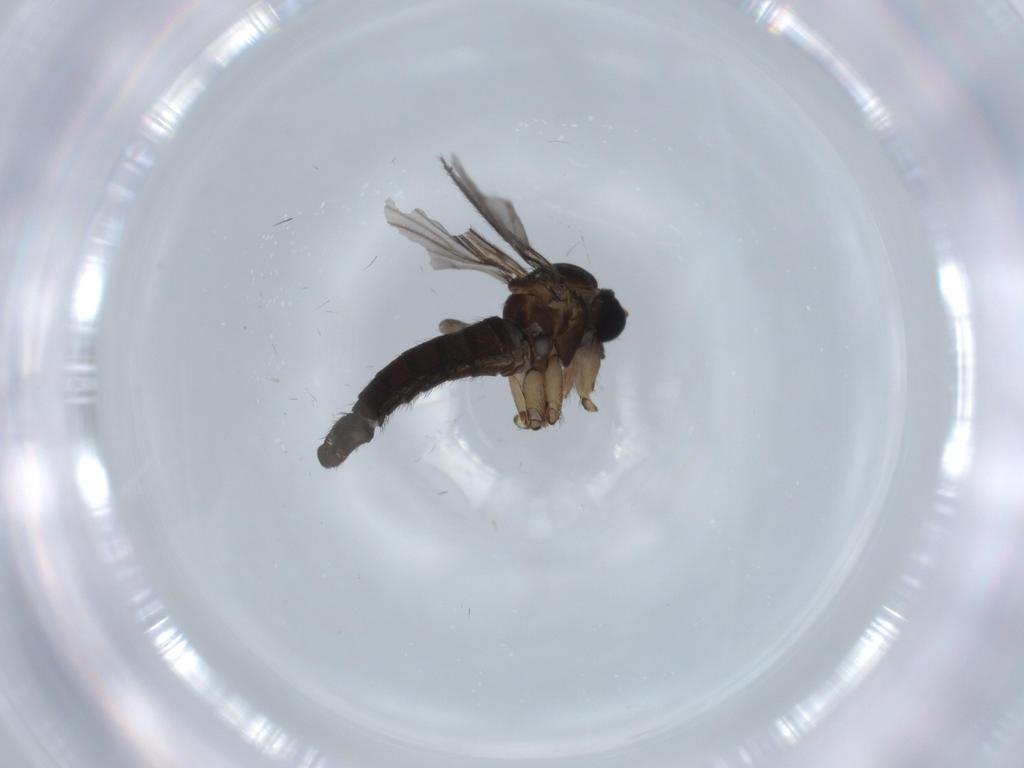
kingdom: Animalia
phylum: Arthropoda
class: Insecta
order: Diptera
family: Sciaridae
